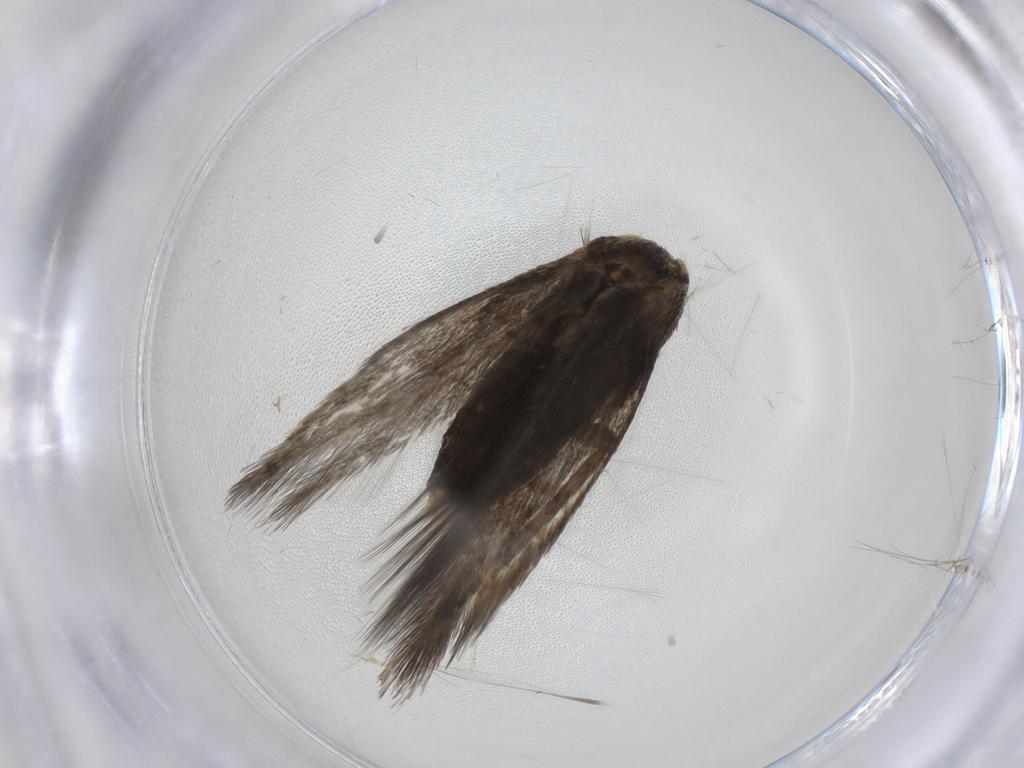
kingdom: Animalia
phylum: Arthropoda
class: Insecta
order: Lepidoptera
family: Nepticulidae
